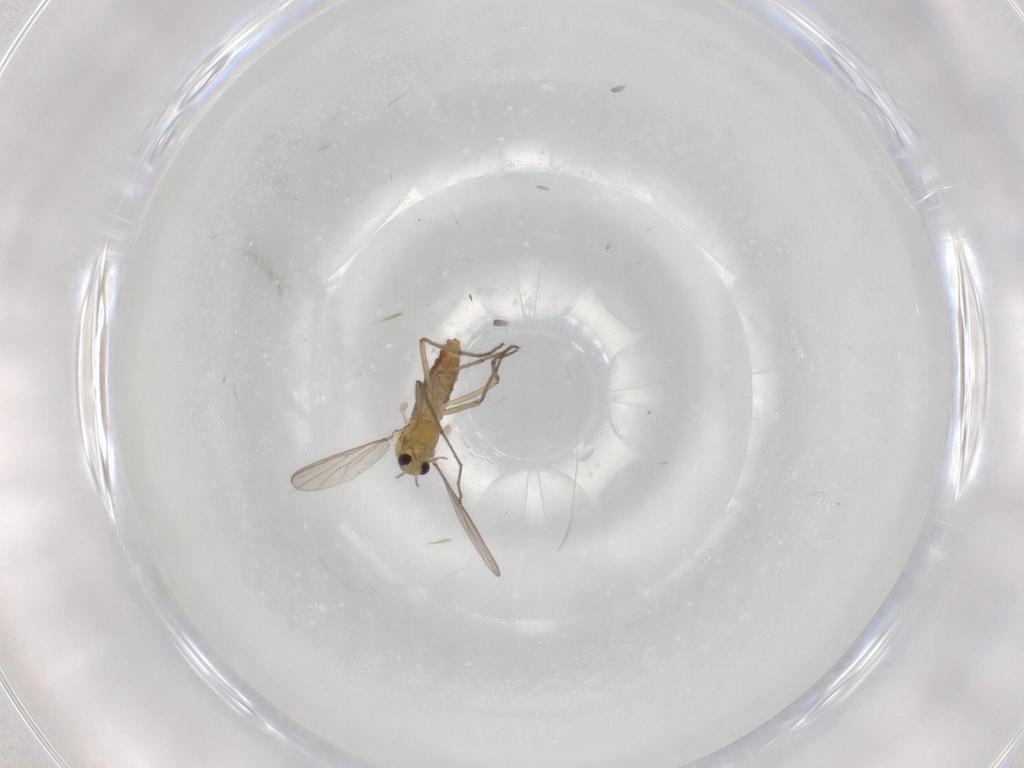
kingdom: Animalia
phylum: Arthropoda
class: Insecta
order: Diptera
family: Chironomidae
